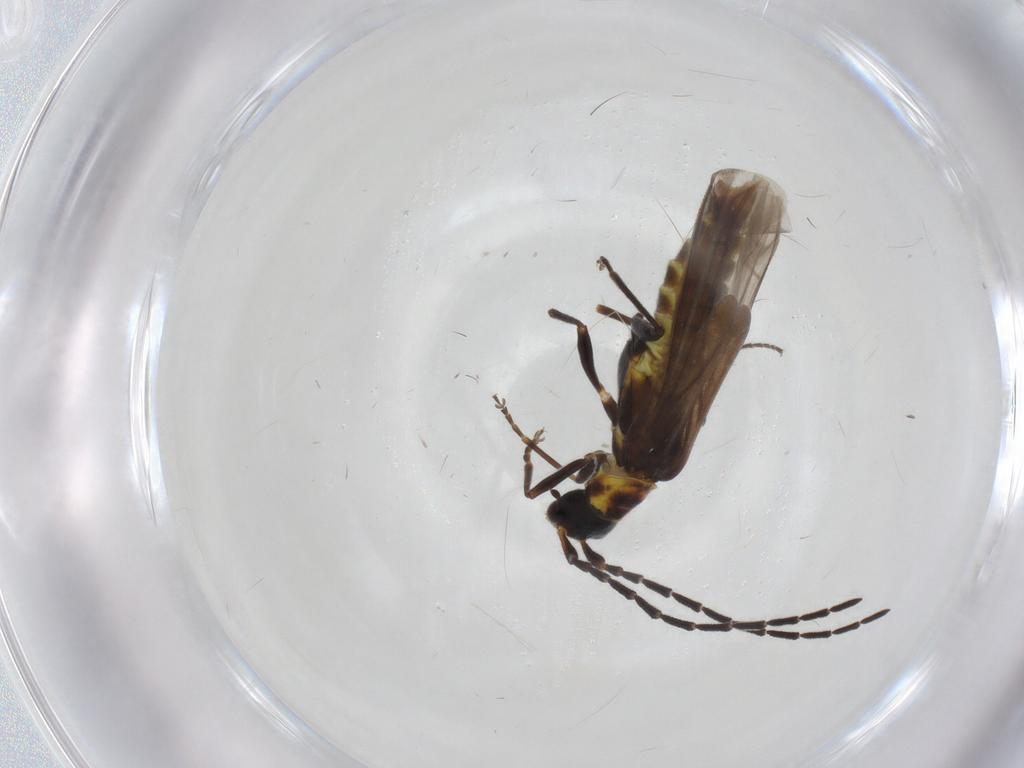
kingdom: Animalia
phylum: Arthropoda
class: Insecta
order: Coleoptera
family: Cantharidae
